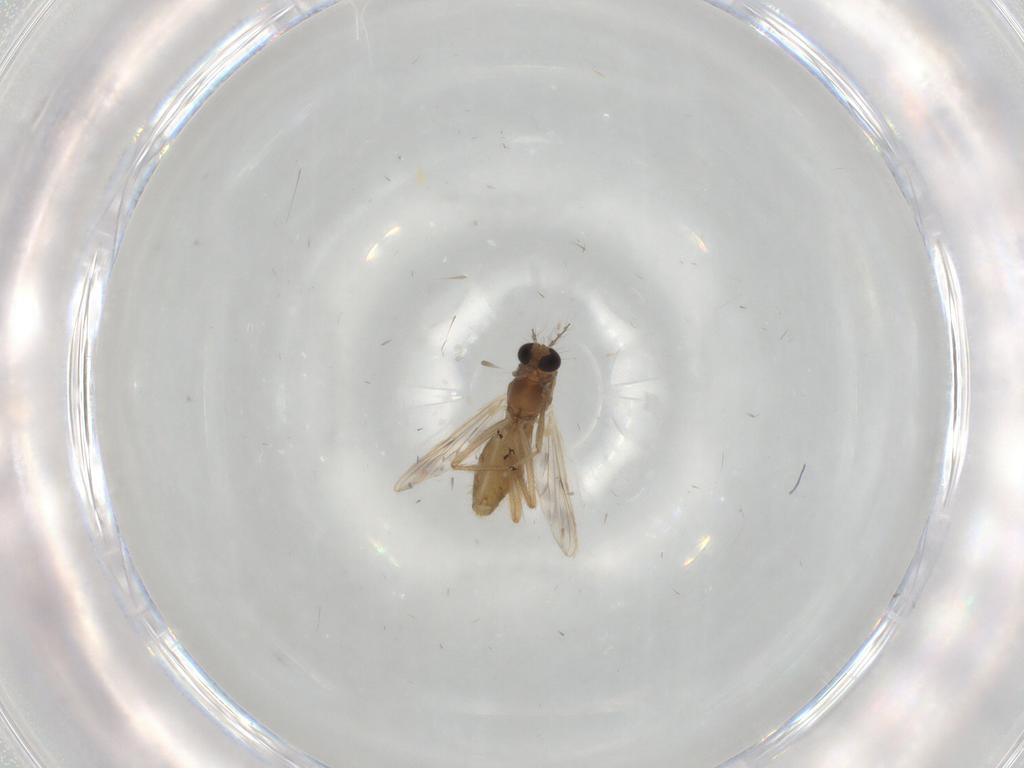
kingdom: Animalia
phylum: Arthropoda
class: Insecta
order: Diptera
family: Chironomidae
